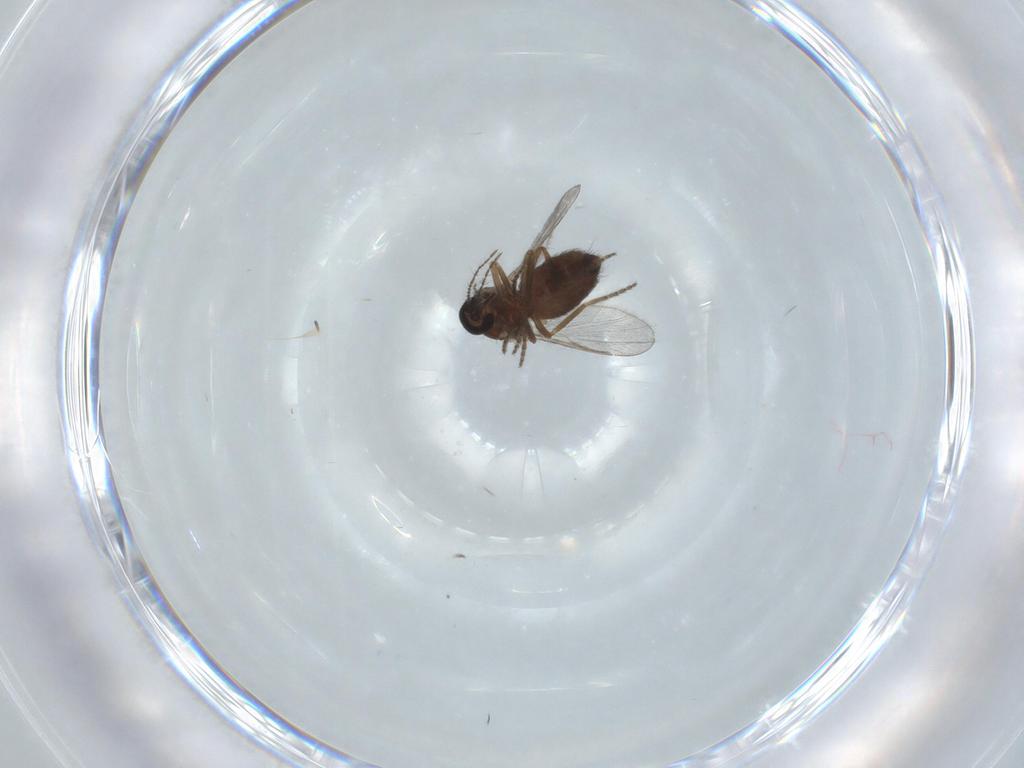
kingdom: Animalia
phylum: Arthropoda
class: Insecta
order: Diptera
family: Ceratopogonidae
